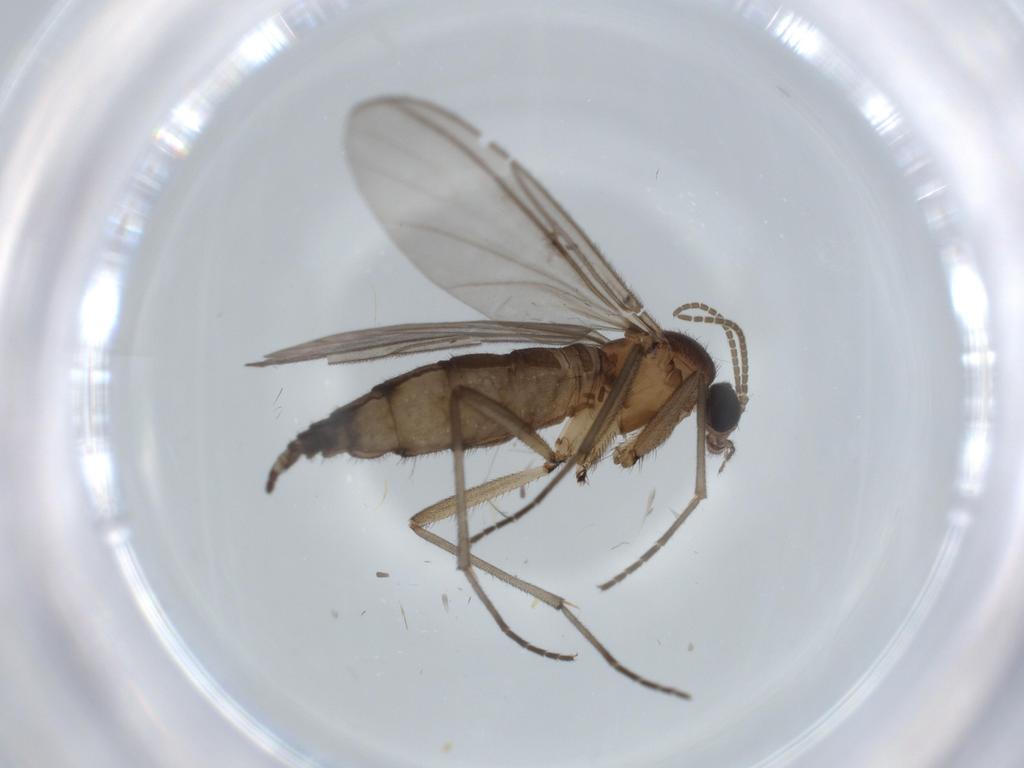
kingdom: Animalia
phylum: Arthropoda
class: Insecta
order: Diptera
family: Sciaridae
